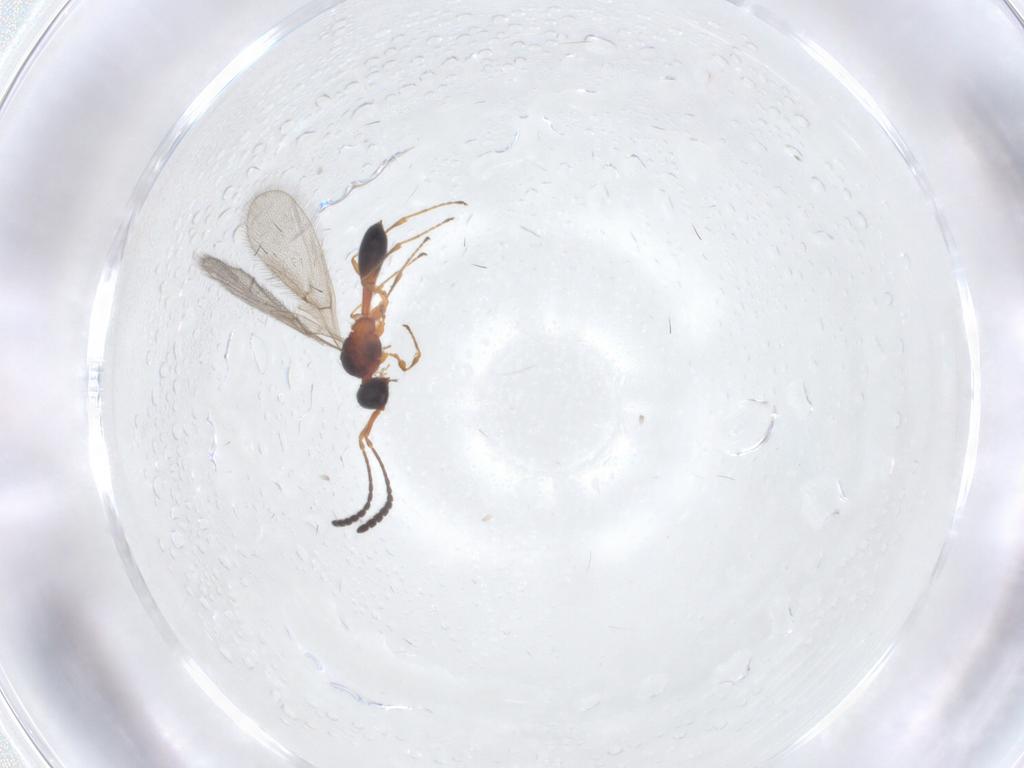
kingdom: Animalia
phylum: Arthropoda
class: Insecta
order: Hymenoptera
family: Diapriidae
